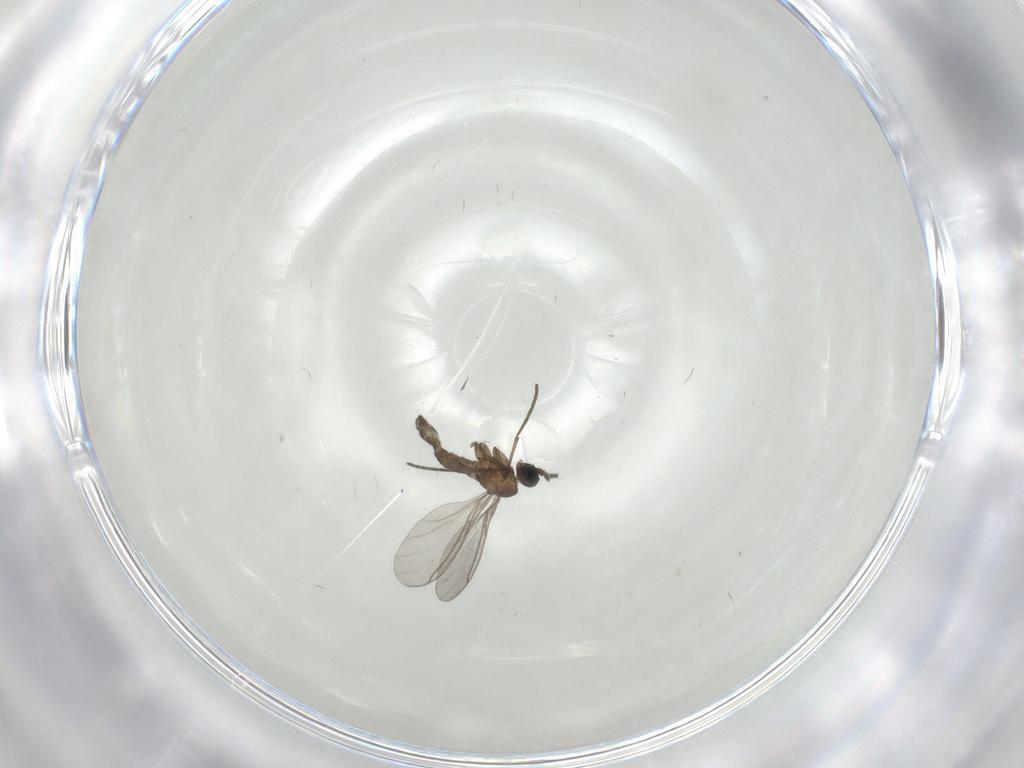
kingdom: Animalia
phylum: Arthropoda
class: Insecta
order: Diptera
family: Sciaridae
